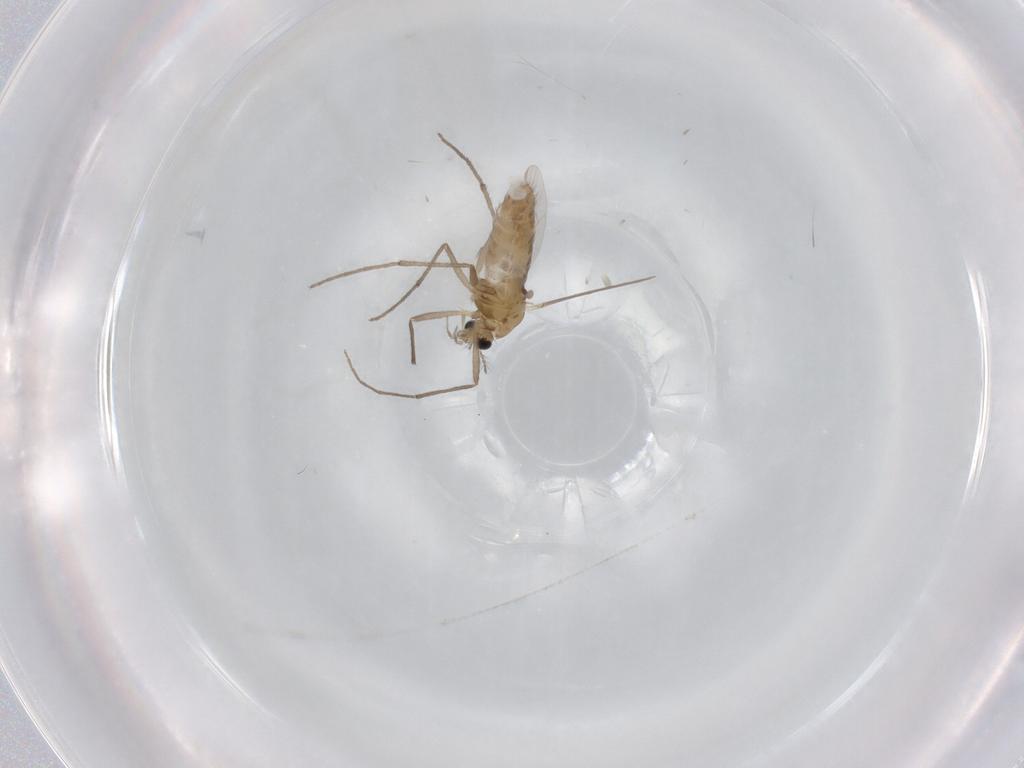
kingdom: Animalia
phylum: Arthropoda
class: Insecta
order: Diptera
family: Chironomidae
